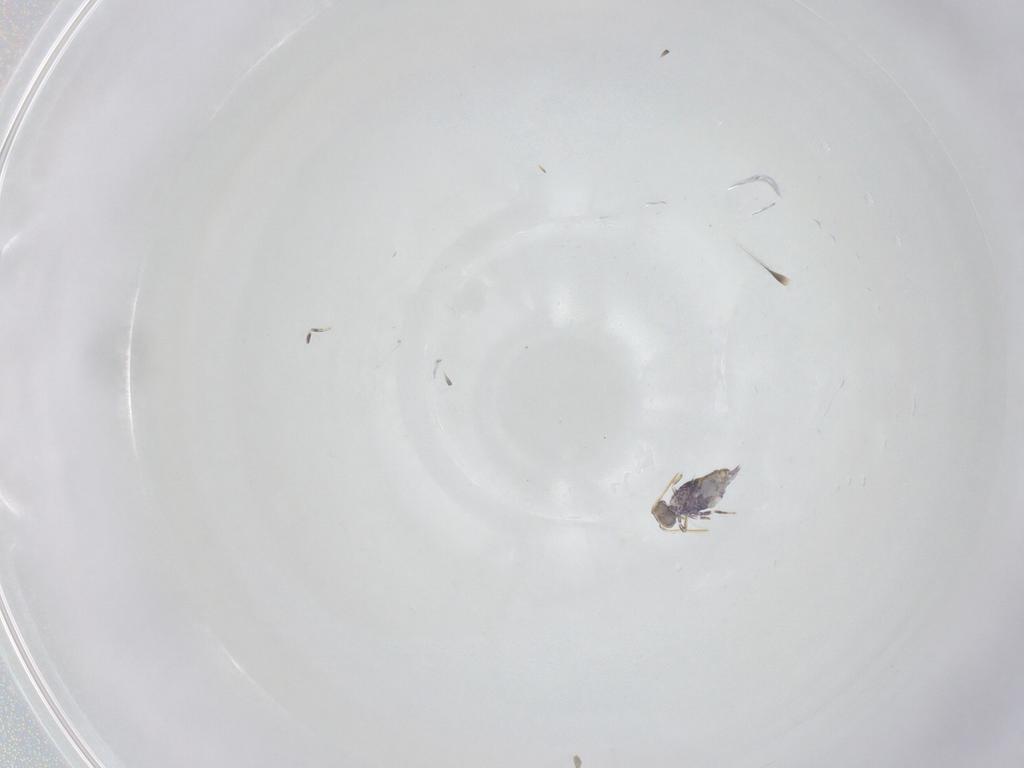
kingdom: Animalia
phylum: Arthropoda
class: Collembola
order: Symphypleona
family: Katiannidae
